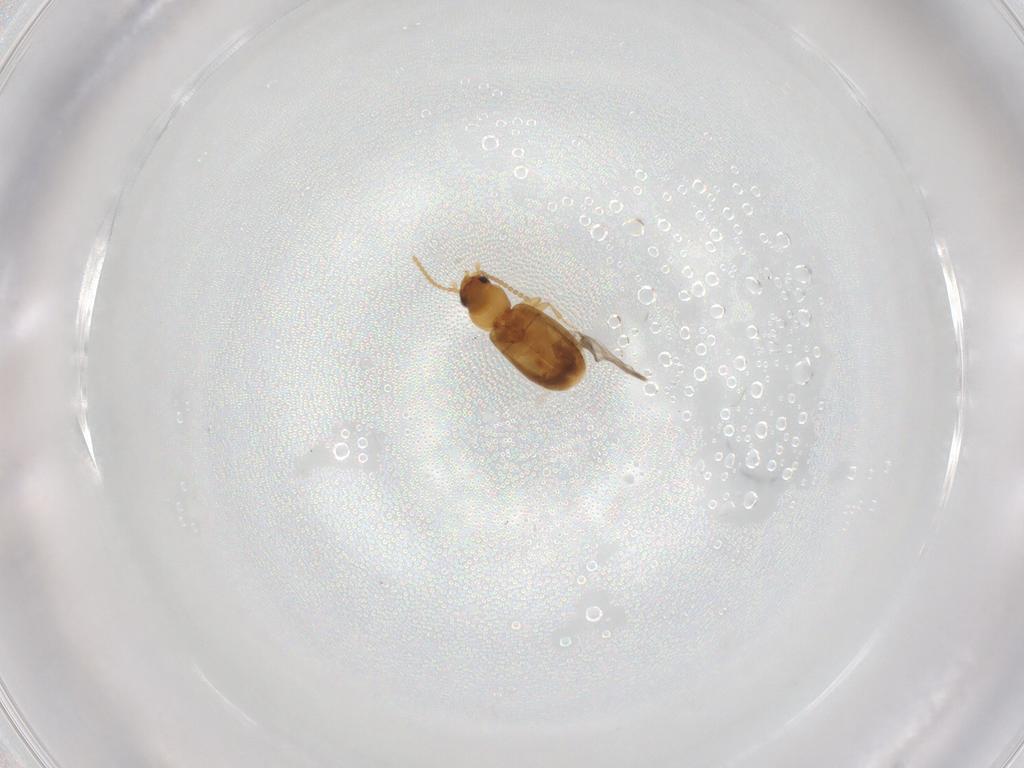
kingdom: Animalia
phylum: Arthropoda
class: Insecta
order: Coleoptera
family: Carabidae
